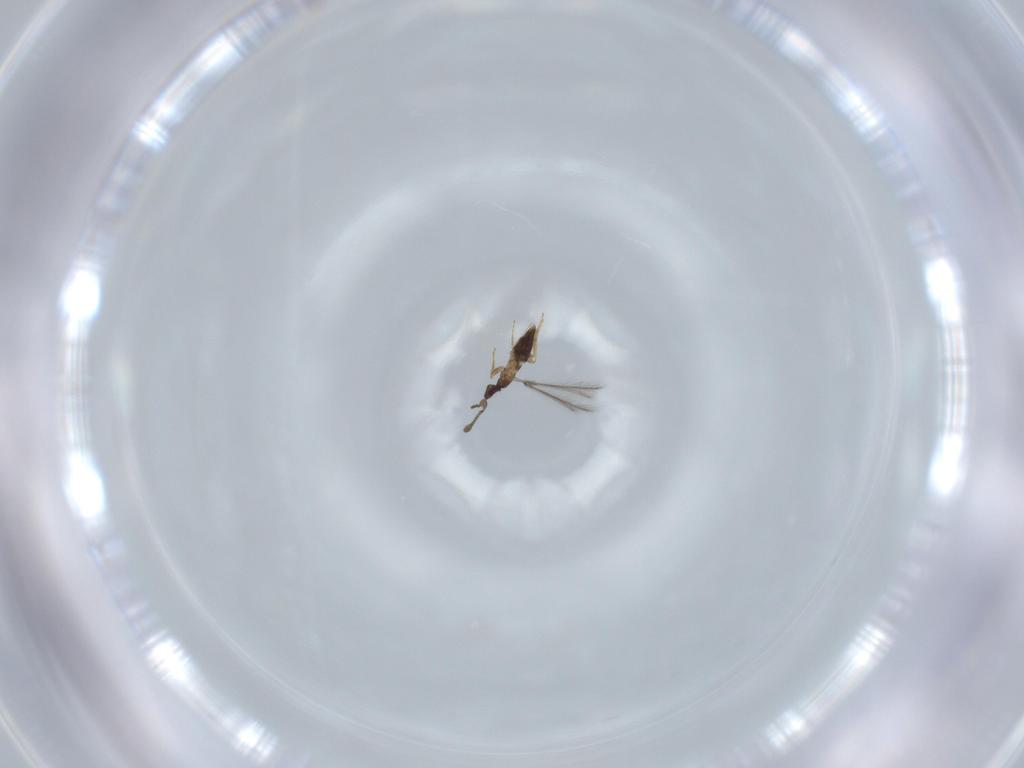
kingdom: Animalia
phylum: Arthropoda
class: Insecta
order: Hymenoptera
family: Mymaridae
